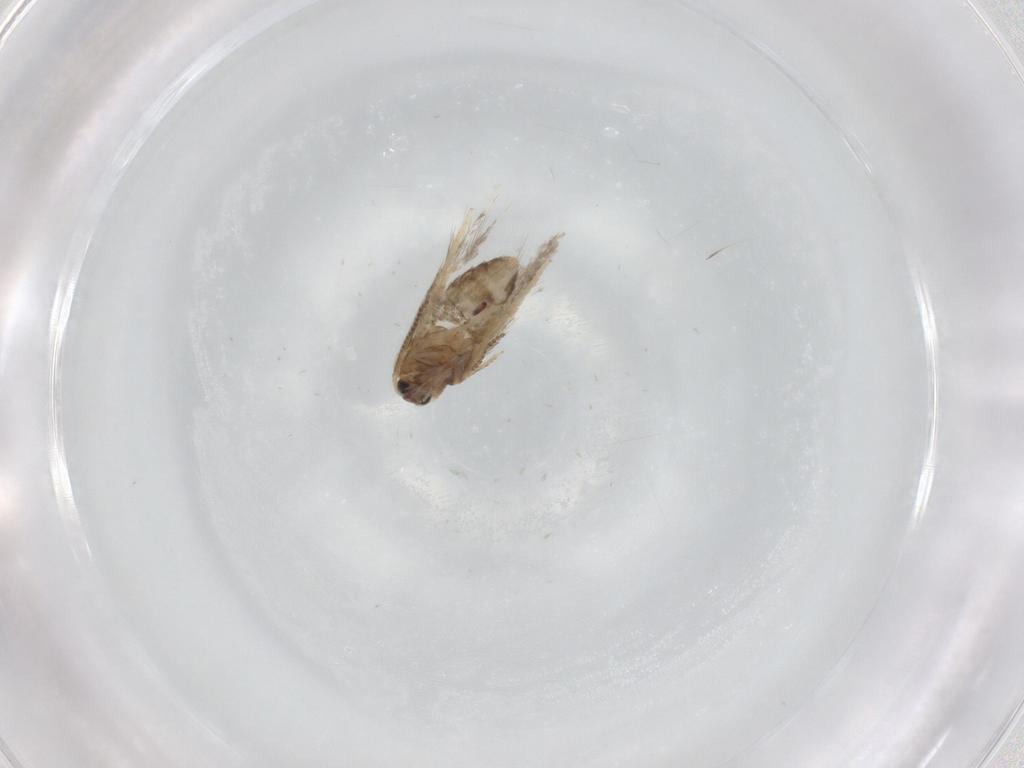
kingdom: Animalia
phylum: Arthropoda
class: Insecta
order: Lepidoptera
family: Nepticulidae
